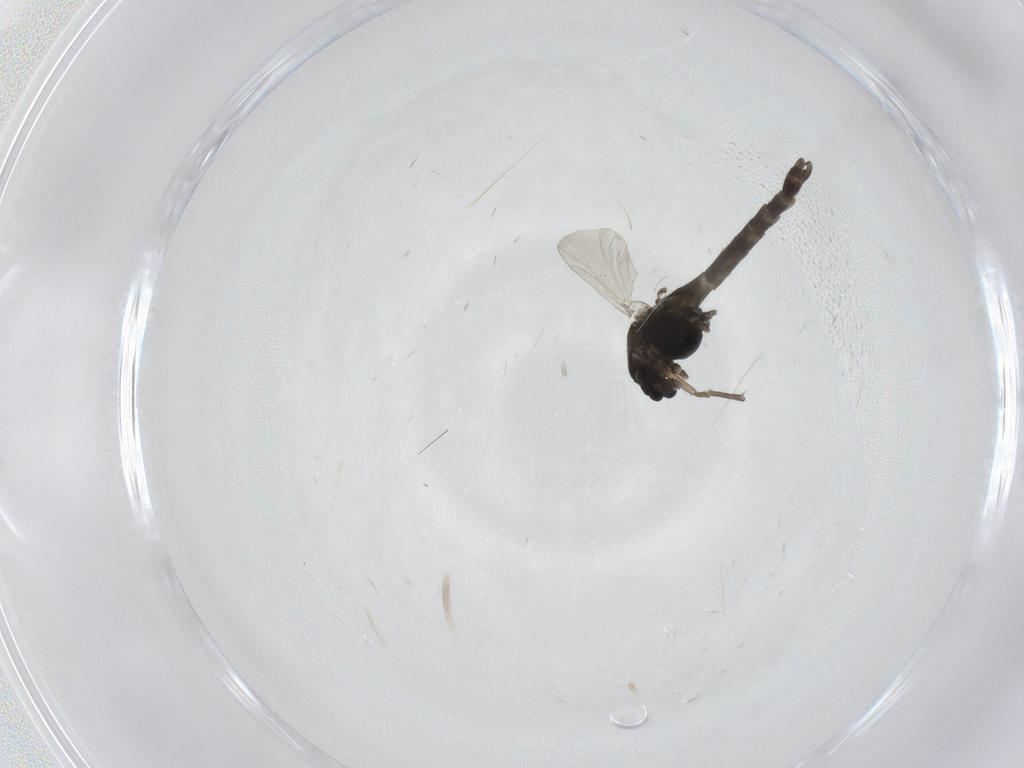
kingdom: Animalia
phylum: Arthropoda
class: Insecta
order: Diptera
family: Chironomidae
